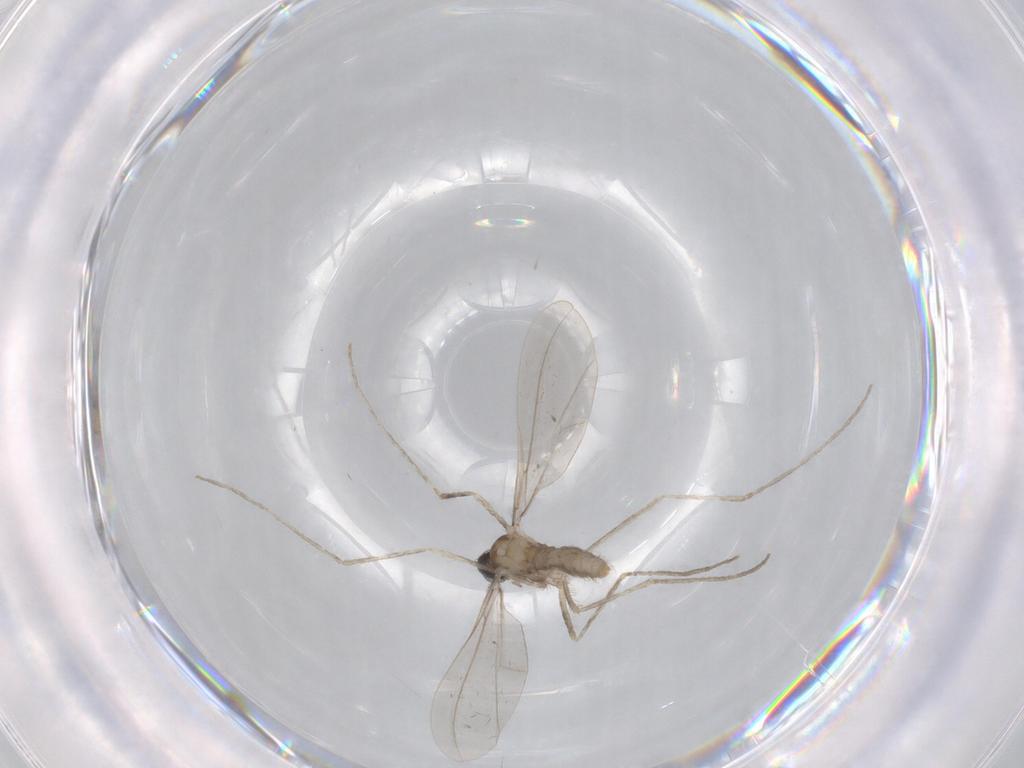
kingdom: Animalia
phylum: Arthropoda
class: Insecta
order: Diptera
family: Cecidomyiidae
